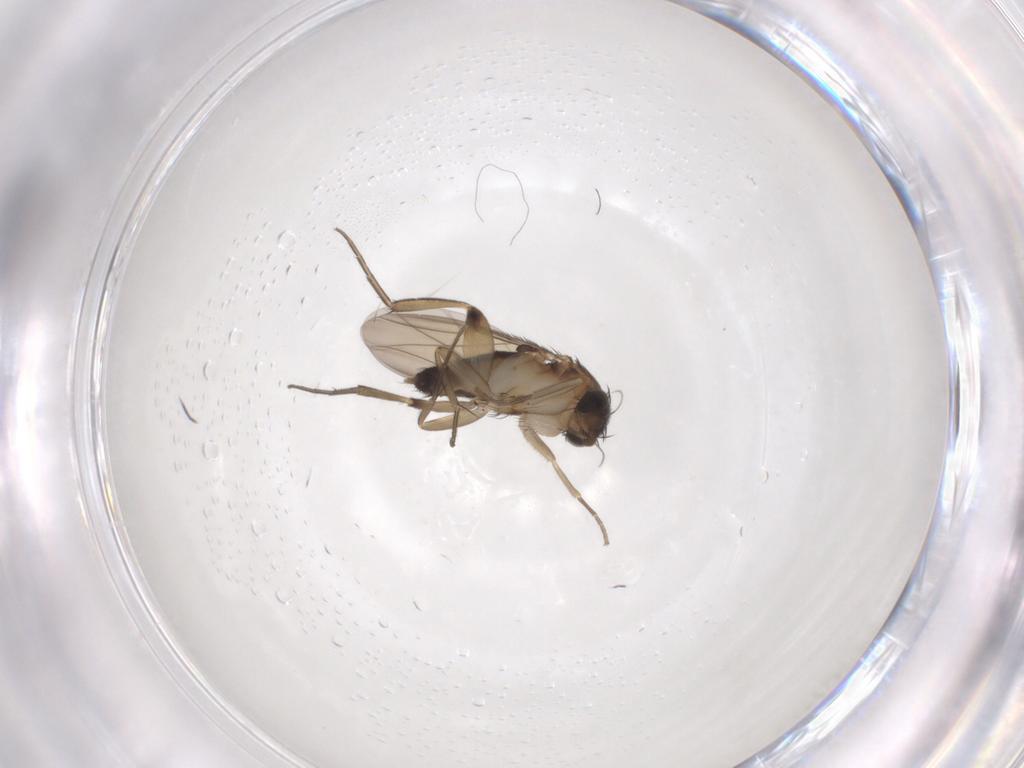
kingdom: Animalia
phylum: Arthropoda
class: Insecta
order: Diptera
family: Phoridae
